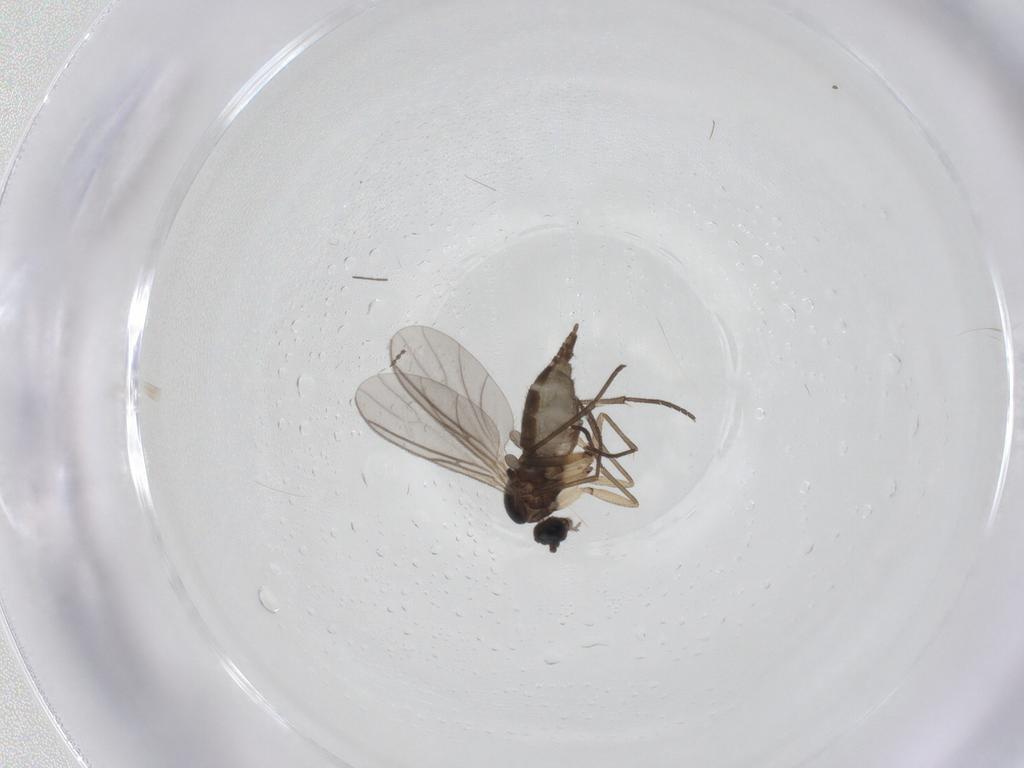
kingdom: Animalia
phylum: Arthropoda
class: Insecta
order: Diptera
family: Sciaridae
